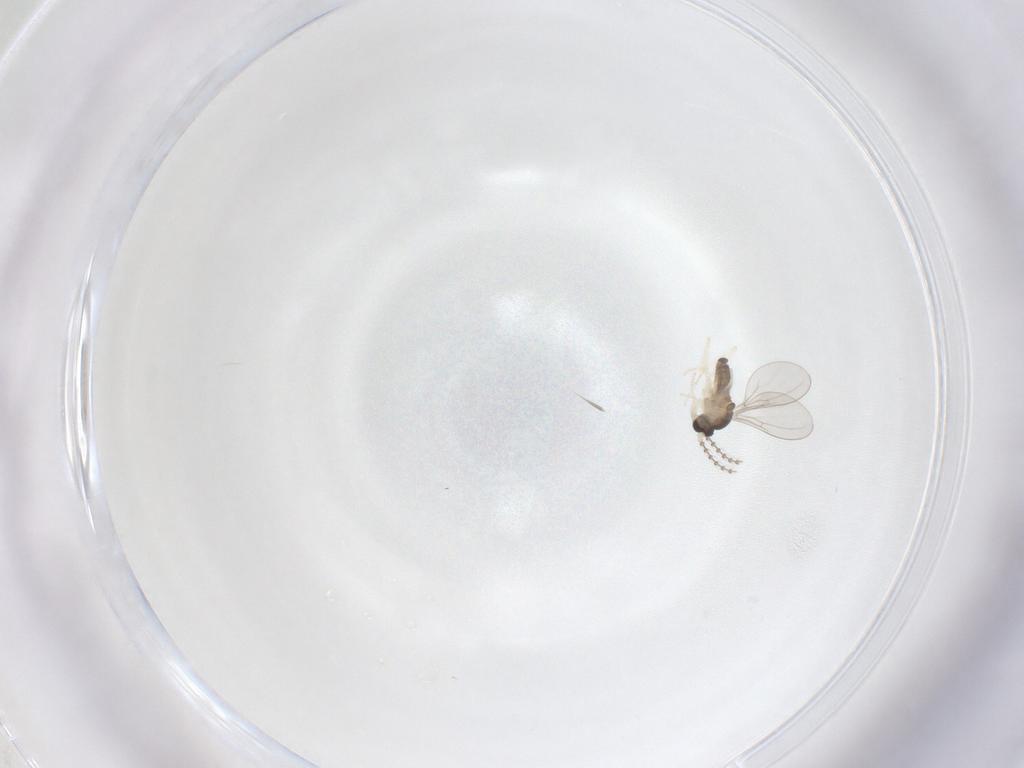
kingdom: Animalia
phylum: Arthropoda
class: Insecta
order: Diptera
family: Cecidomyiidae
